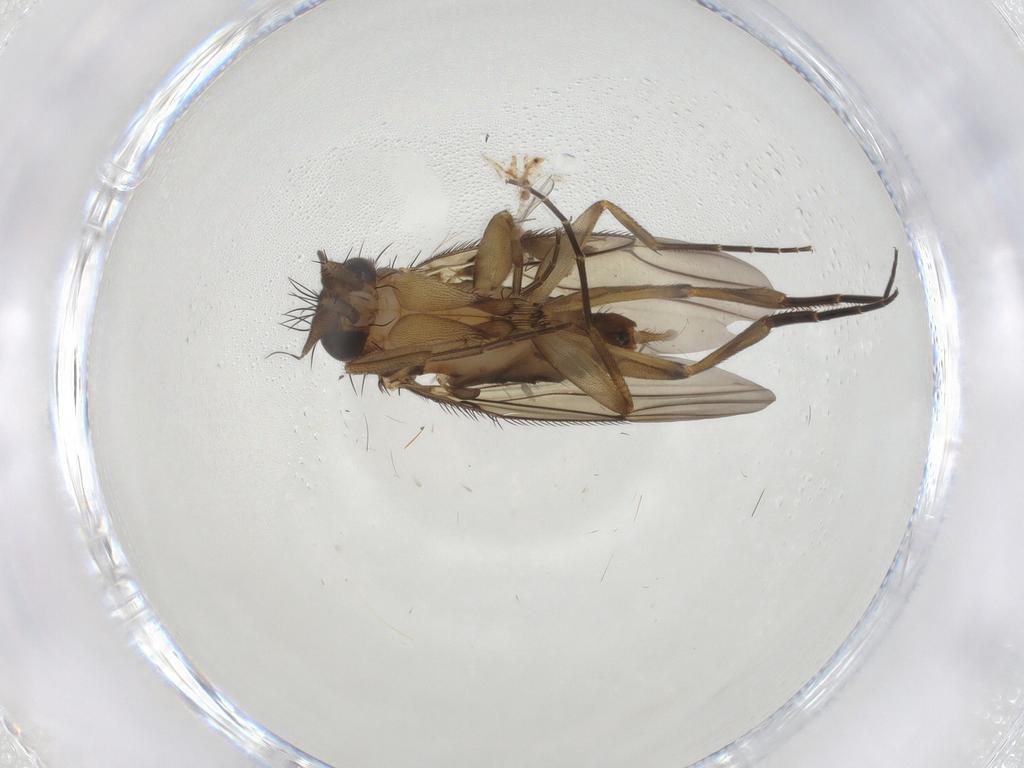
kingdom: Animalia
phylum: Arthropoda
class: Insecta
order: Diptera
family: Phoridae
